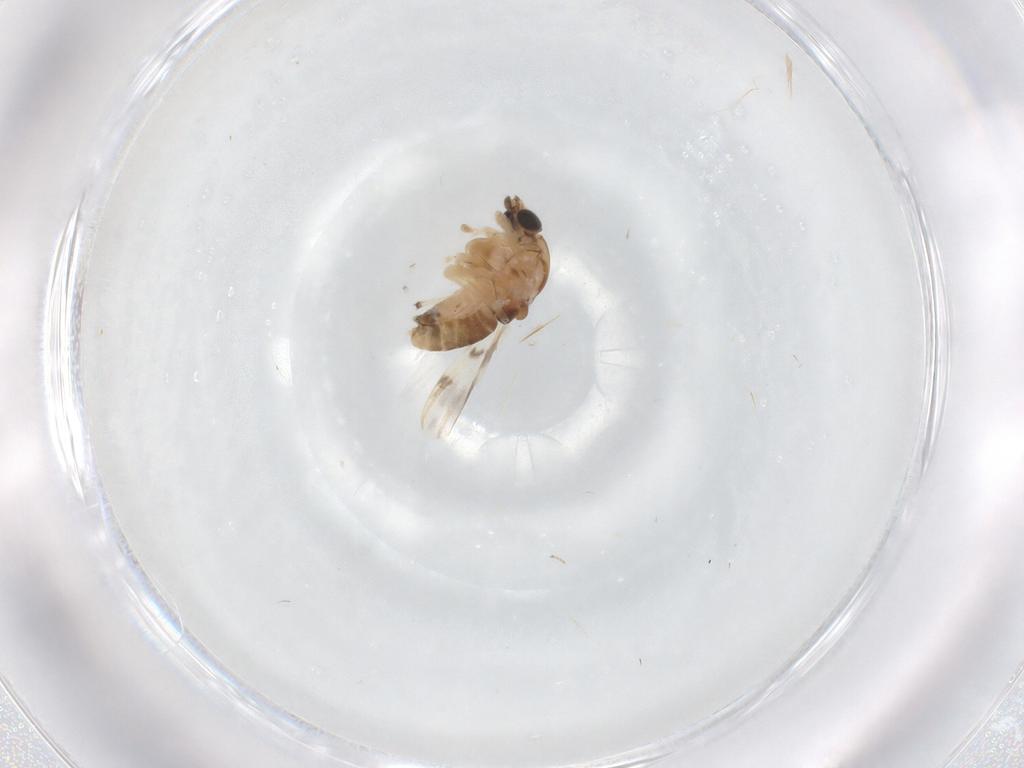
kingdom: Animalia
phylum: Arthropoda
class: Insecta
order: Diptera
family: Chironomidae
